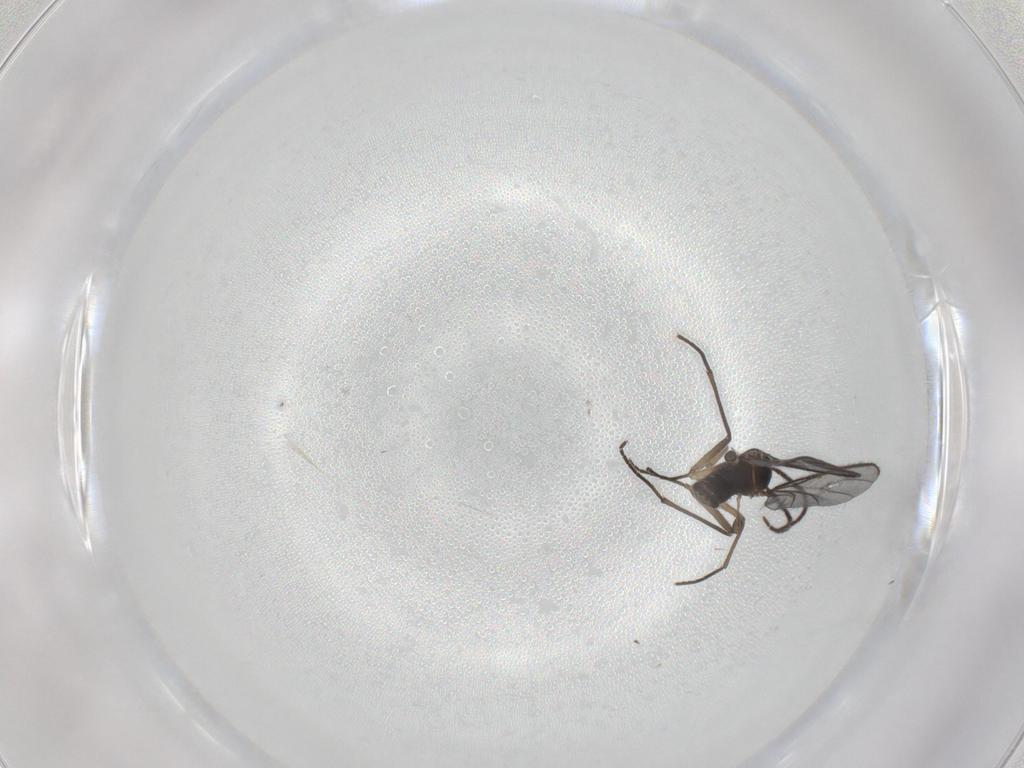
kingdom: Animalia
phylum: Arthropoda
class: Insecta
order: Diptera
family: Sciaridae
